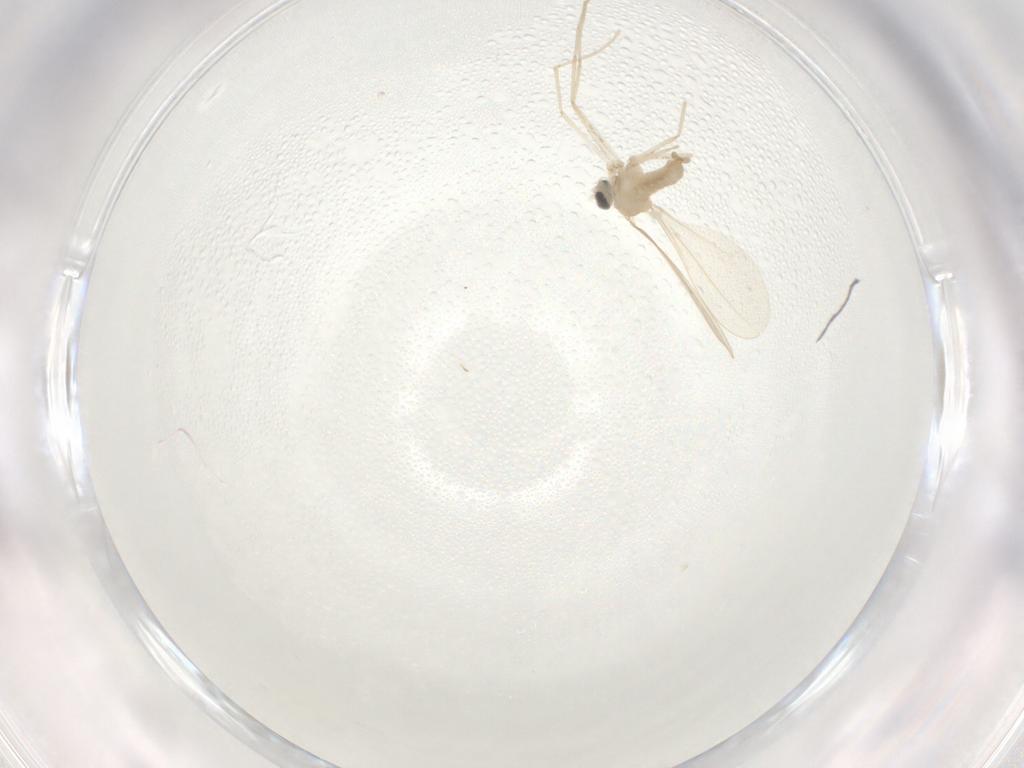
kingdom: Animalia
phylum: Arthropoda
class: Insecta
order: Diptera
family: Cecidomyiidae
